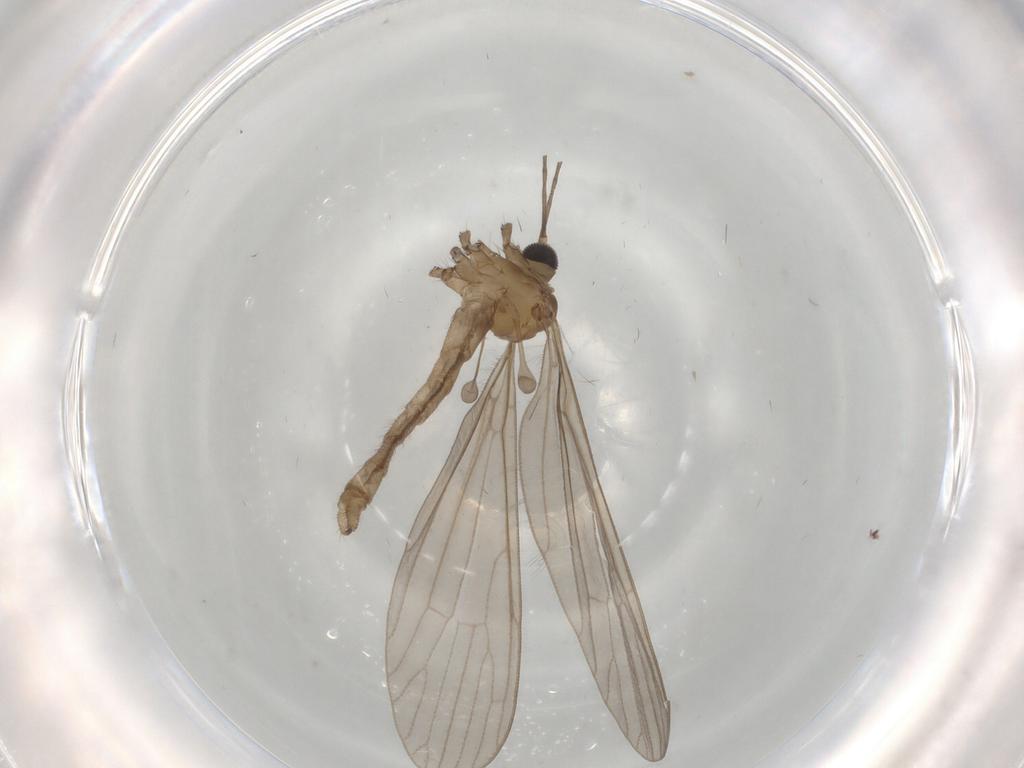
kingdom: Animalia
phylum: Arthropoda
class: Insecta
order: Diptera
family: Limoniidae
